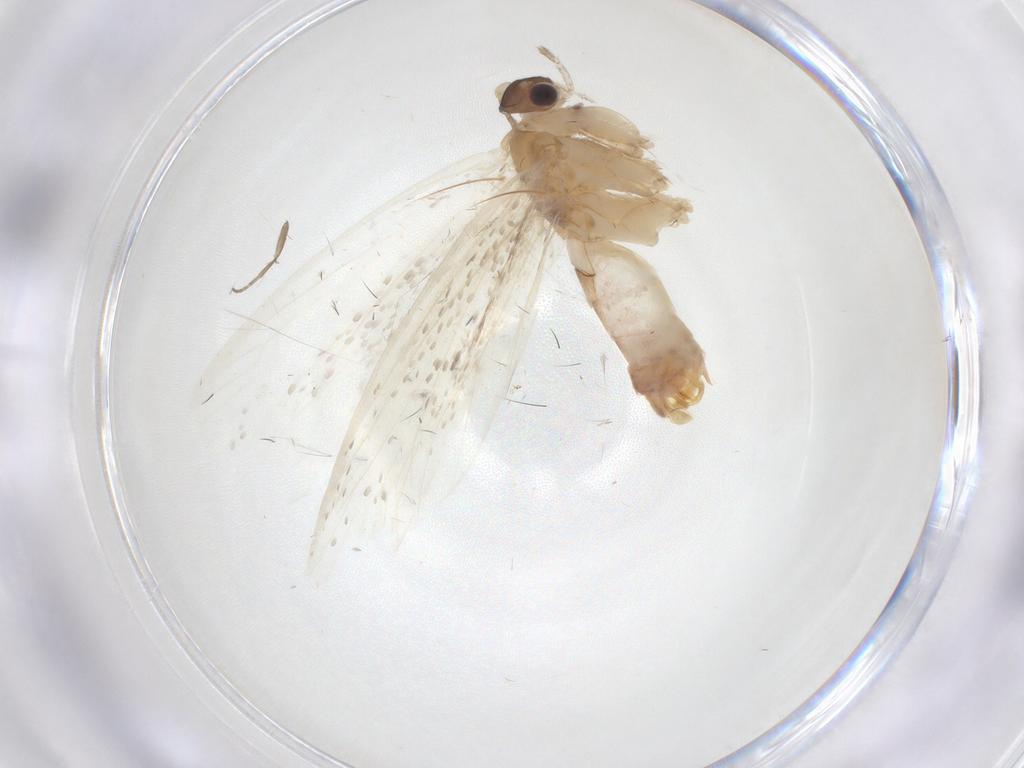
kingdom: Animalia
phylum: Arthropoda
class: Insecta
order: Lepidoptera
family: Dryadaulidae
